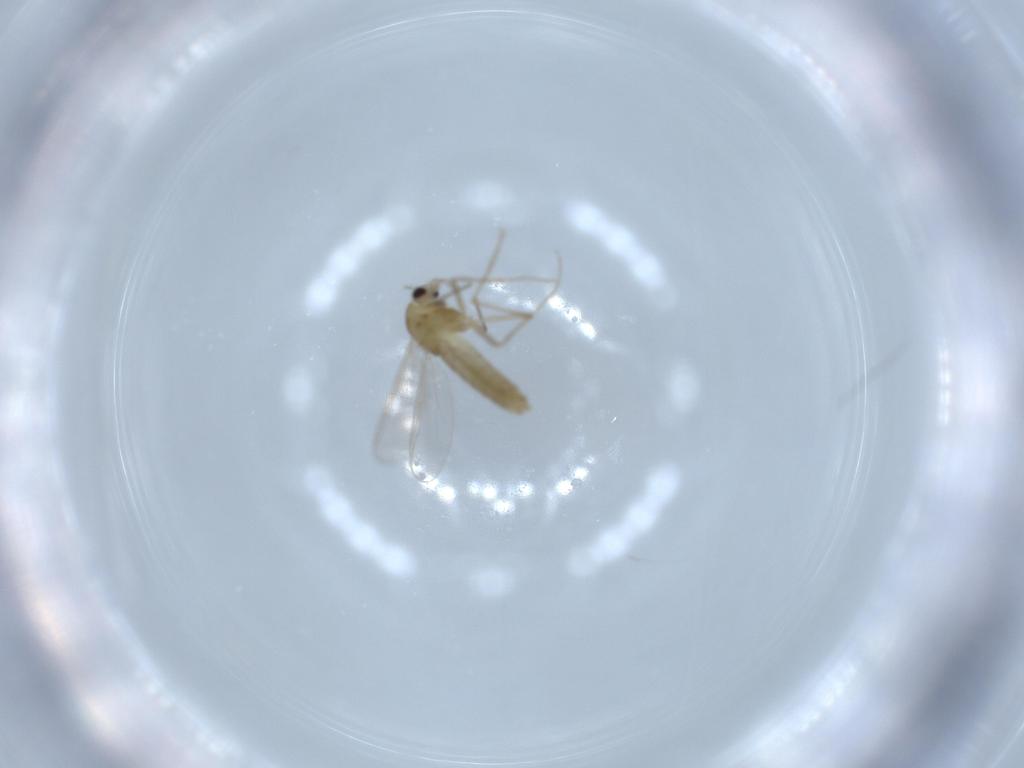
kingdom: Animalia
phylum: Arthropoda
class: Insecta
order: Diptera
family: Chironomidae
